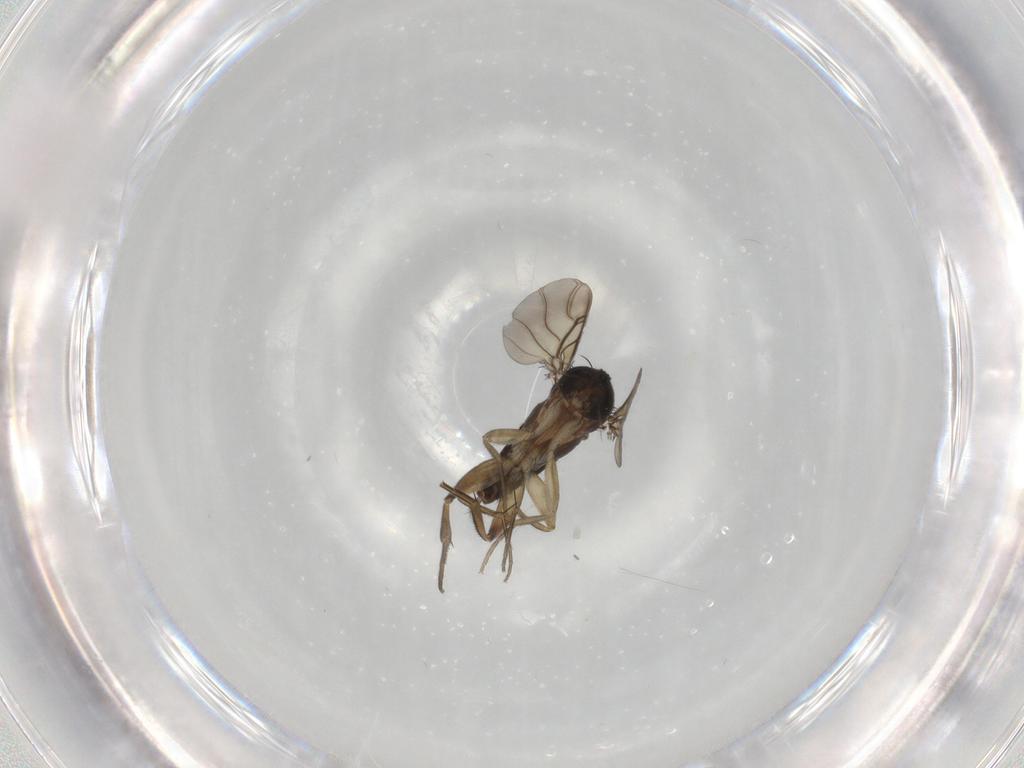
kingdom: Animalia
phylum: Arthropoda
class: Insecta
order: Diptera
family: Phoridae
